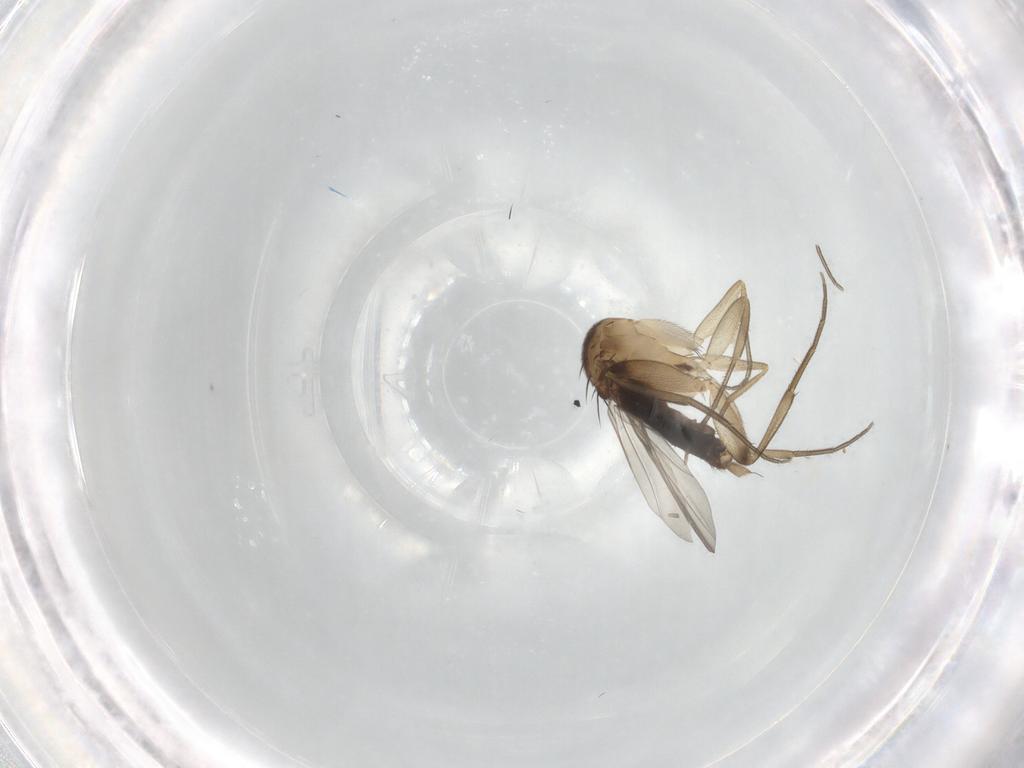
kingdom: Animalia
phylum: Arthropoda
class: Insecta
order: Diptera
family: Phoridae
